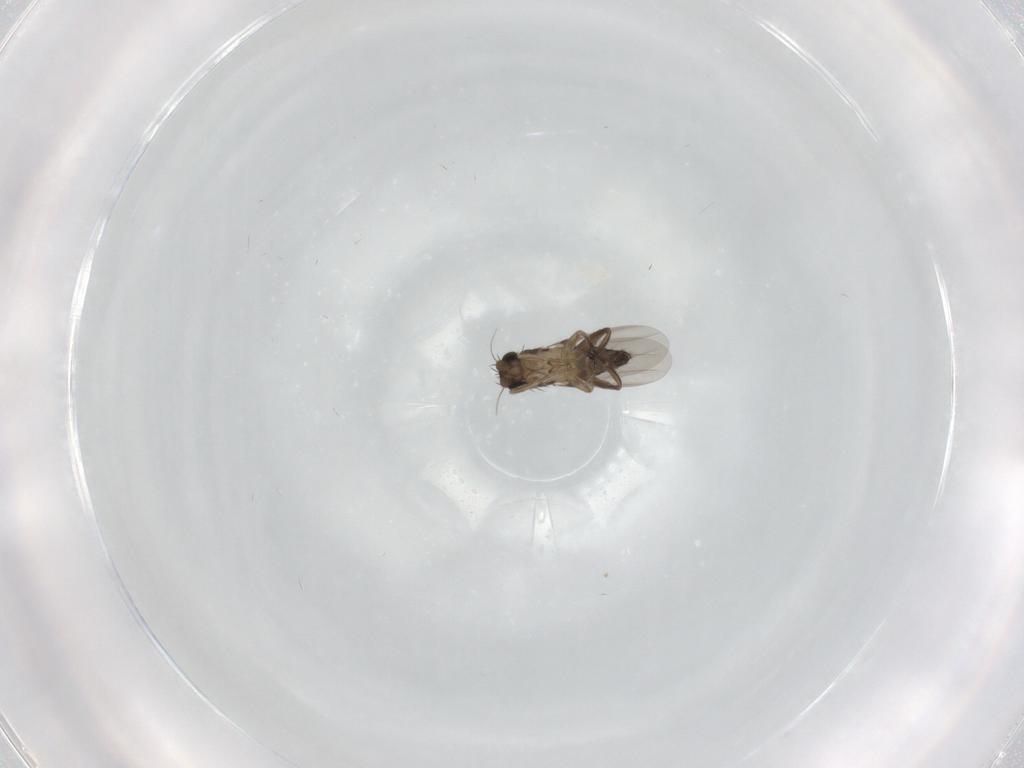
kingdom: Animalia
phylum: Arthropoda
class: Insecta
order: Diptera
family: Phoridae
